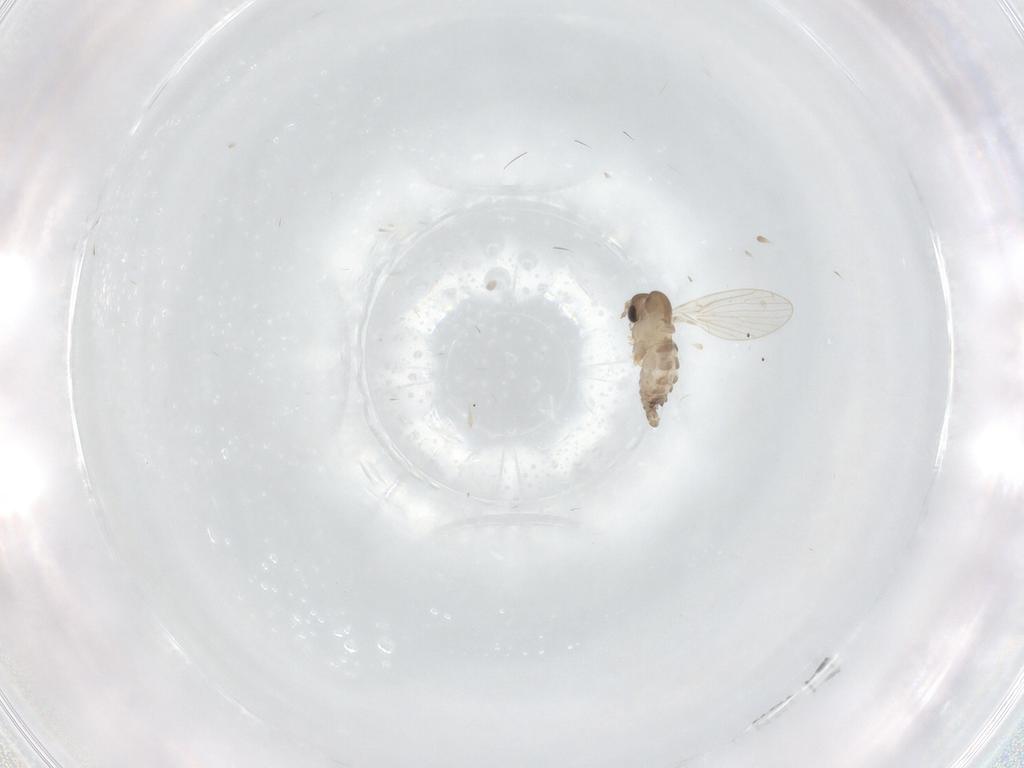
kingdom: Animalia
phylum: Arthropoda
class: Insecta
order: Diptera
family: Psychodidae
